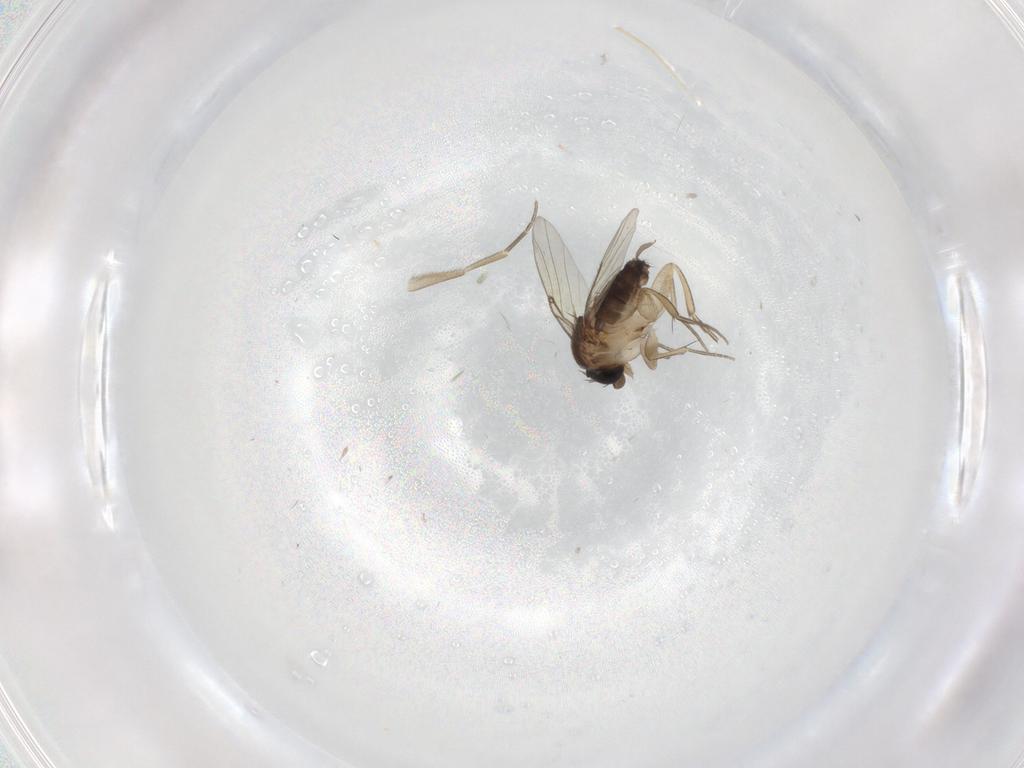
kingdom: Animalia
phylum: Arthropoda
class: Insecta
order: Diptera
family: Phoridae
